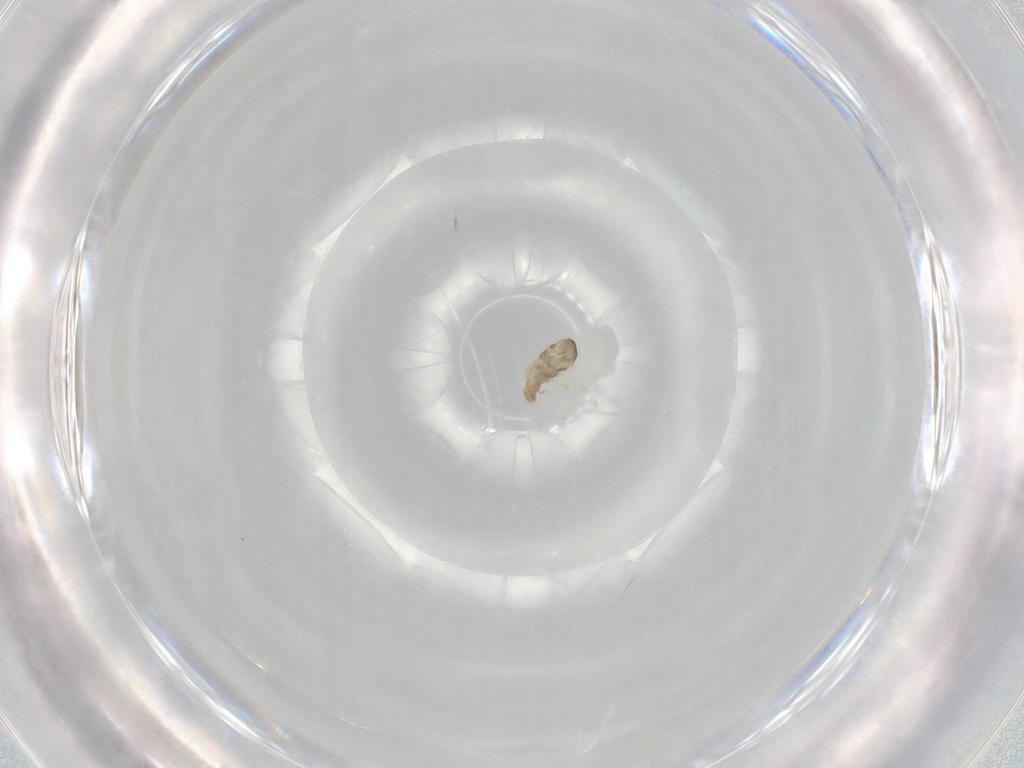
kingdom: Animalia
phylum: Arthropoda
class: Insecta
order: Diptera
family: Cecidomyiidae
